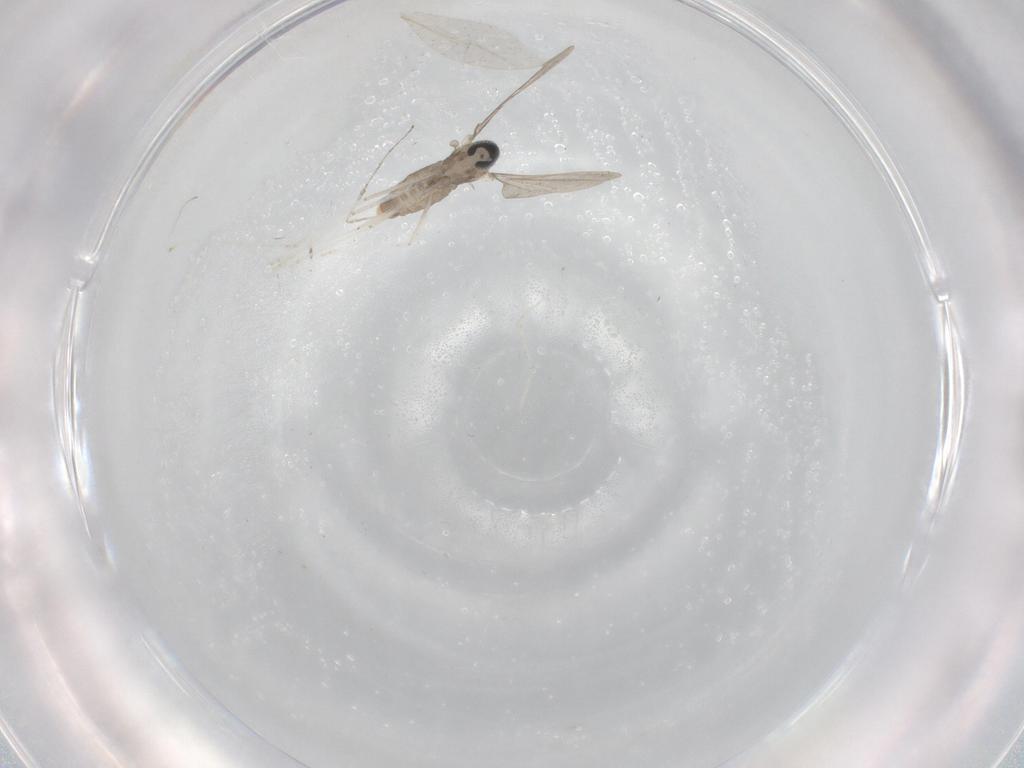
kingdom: Animalia
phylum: Arthropoda
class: Insecta
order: Diptera
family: Cecidomyiidae
